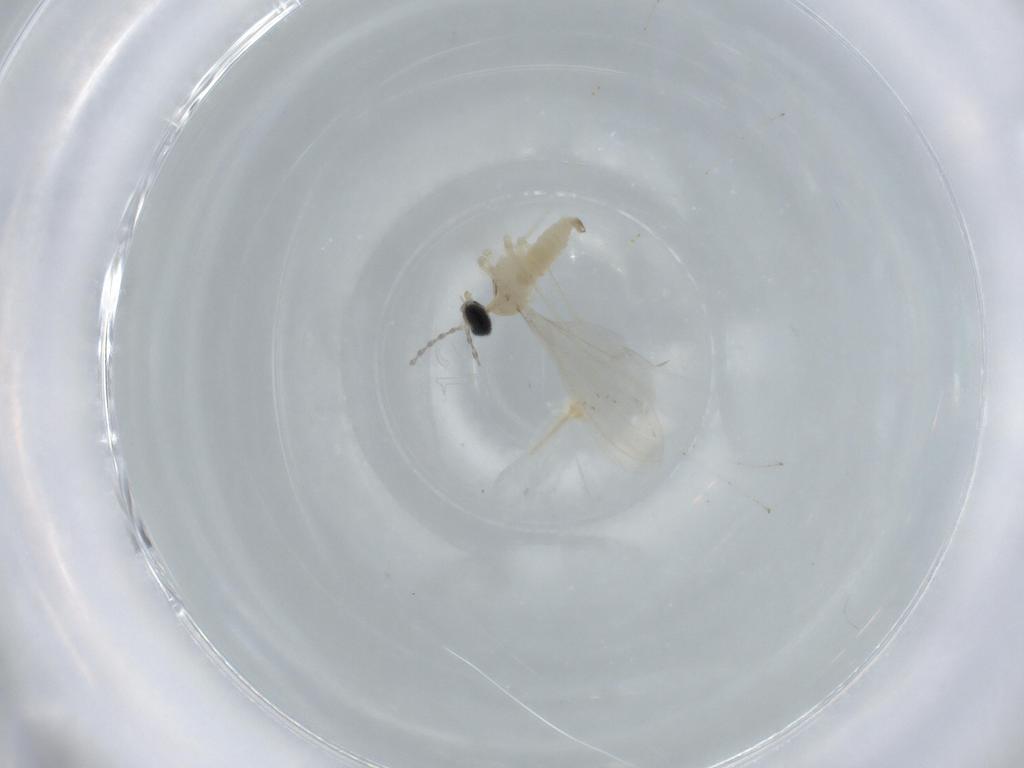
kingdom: Animalia
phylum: Arthropoda
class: Insecta
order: Diptera
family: Cecidomyiidae
